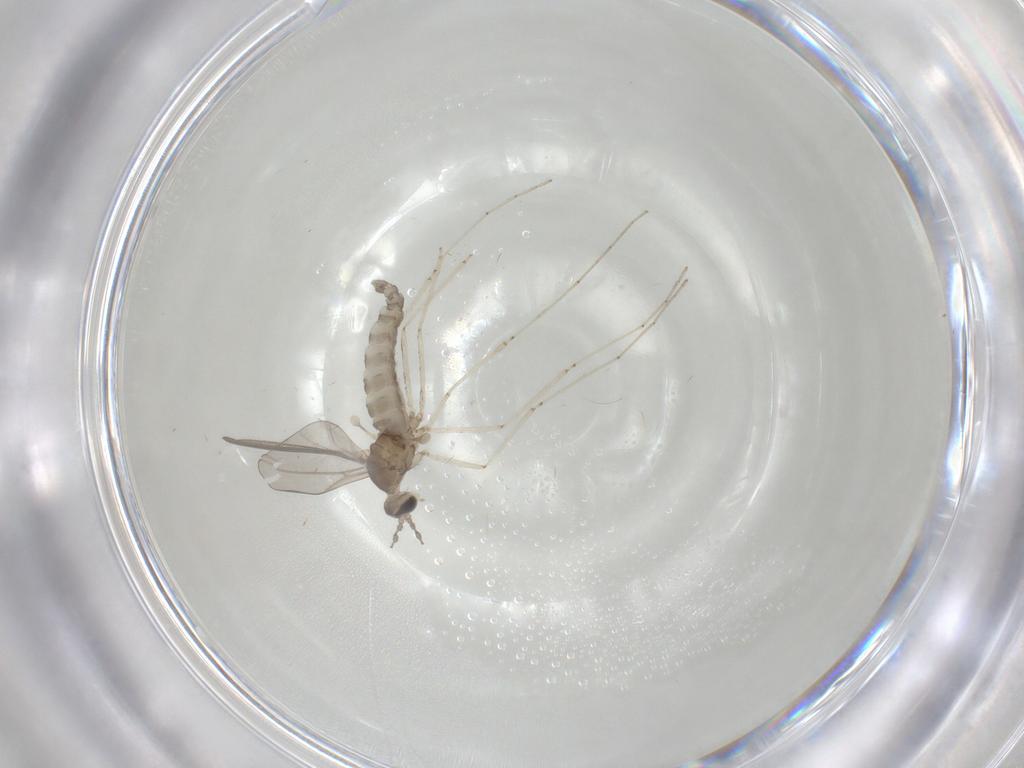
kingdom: Animalia
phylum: Arthropoda
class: Insecta
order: Diptera
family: Cecidomyiidae
